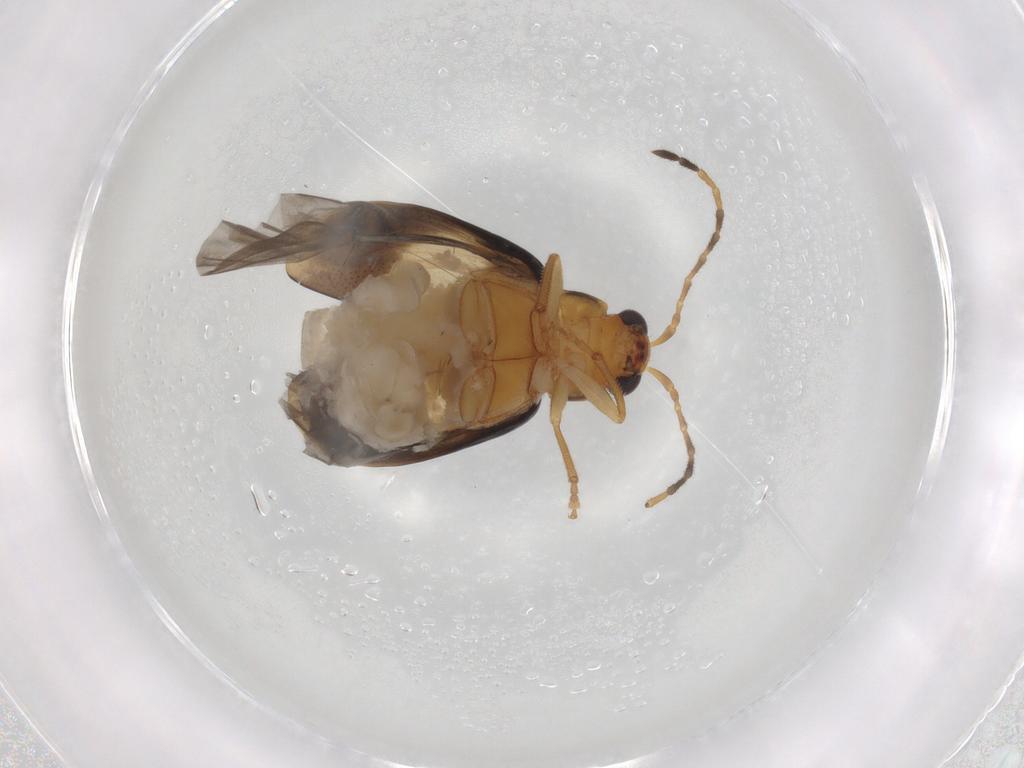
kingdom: Animalia
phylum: Arthropoda
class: Insecta
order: Coleoptera
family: Chrysomelidae
